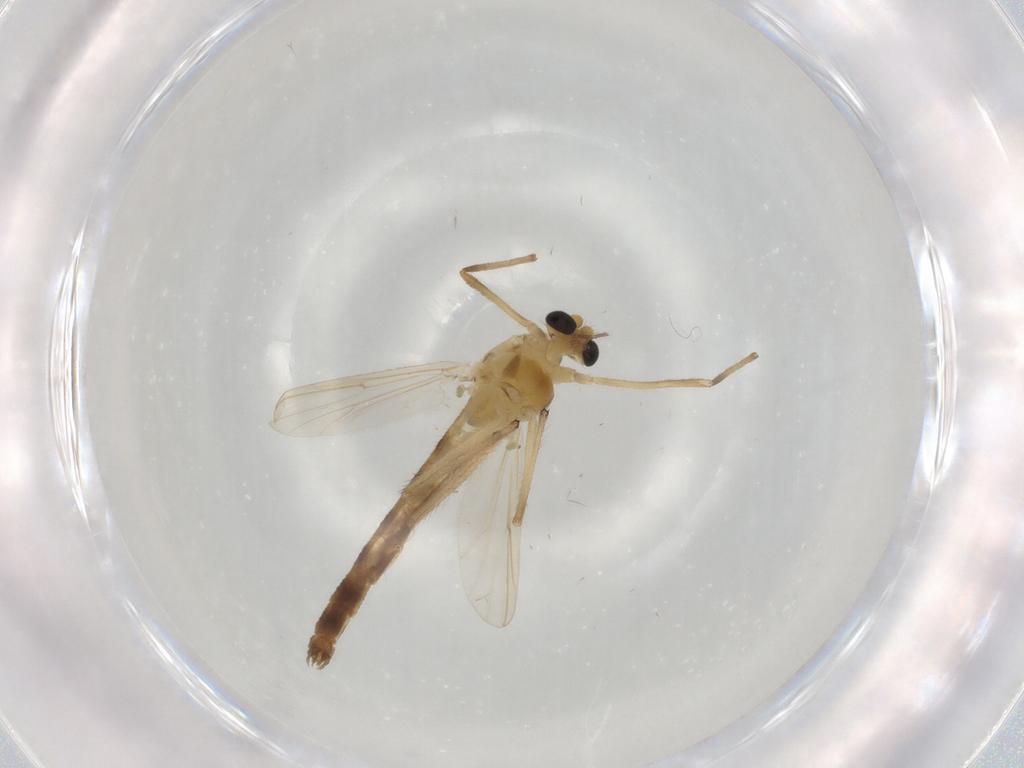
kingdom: Animalia
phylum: Arthropoda
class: Insecta
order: Diptera
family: Chironomidae
